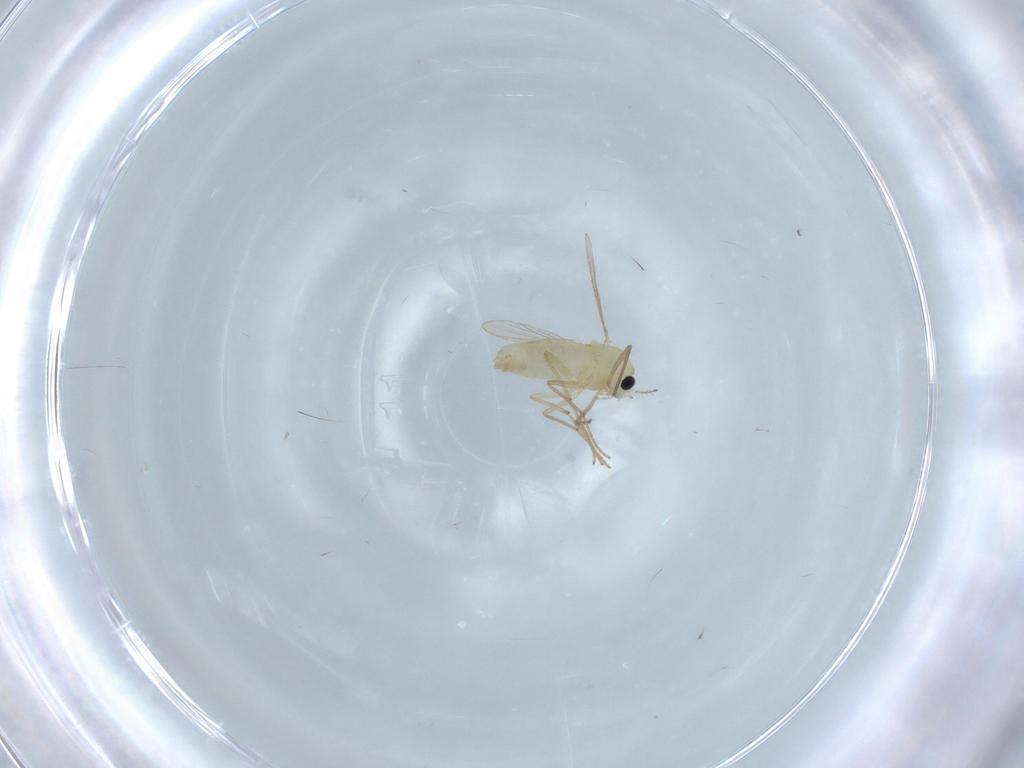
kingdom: Animalia
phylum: Arthropoda
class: Insecta
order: Diptera
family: Chironomidae
